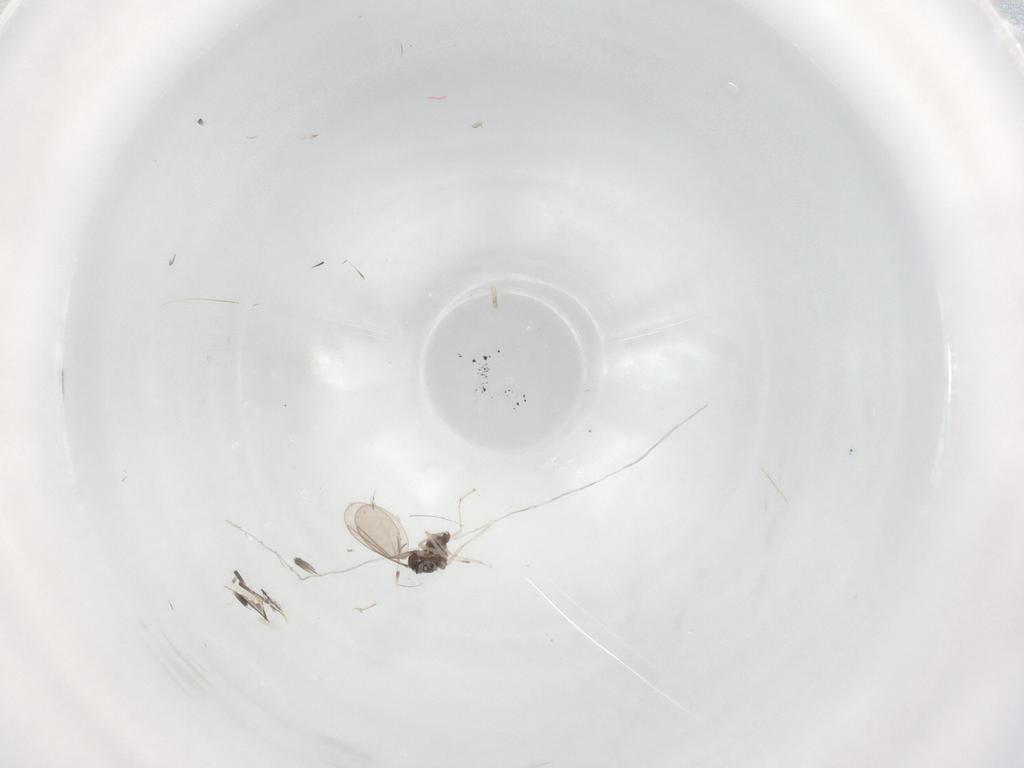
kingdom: Animalia
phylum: Arthropoda
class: Insecta
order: Diptera
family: Cecidomyiidae
